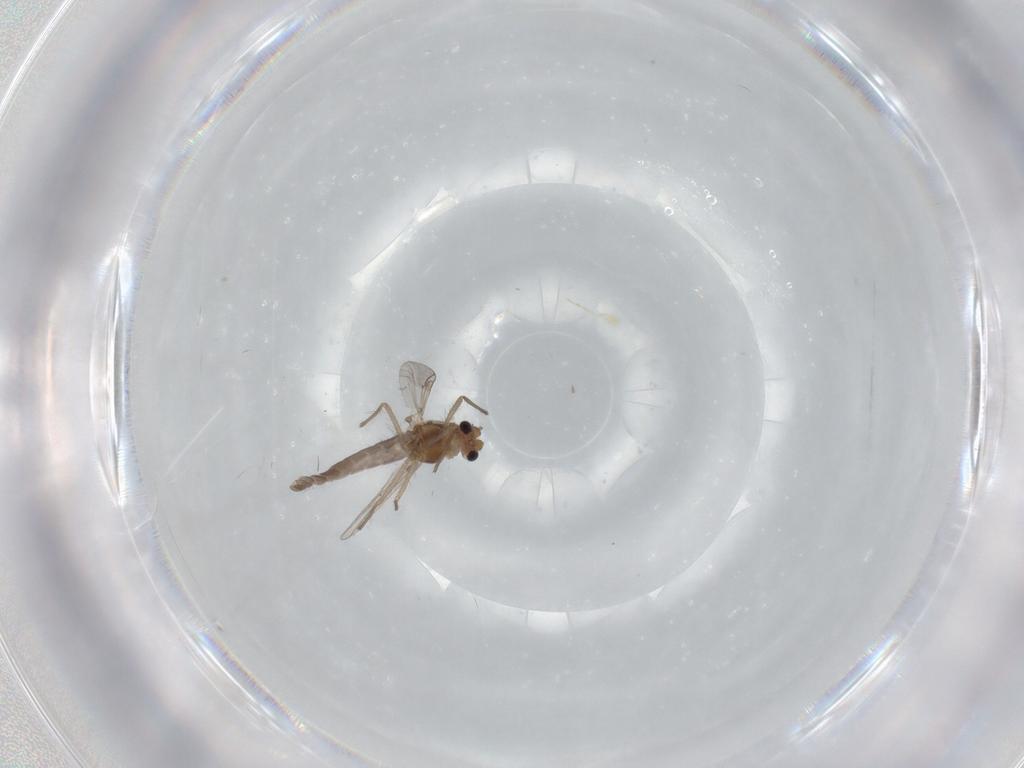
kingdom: Animalia
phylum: Arthropoda
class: Insecta
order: Diptera
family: Chironomidae
